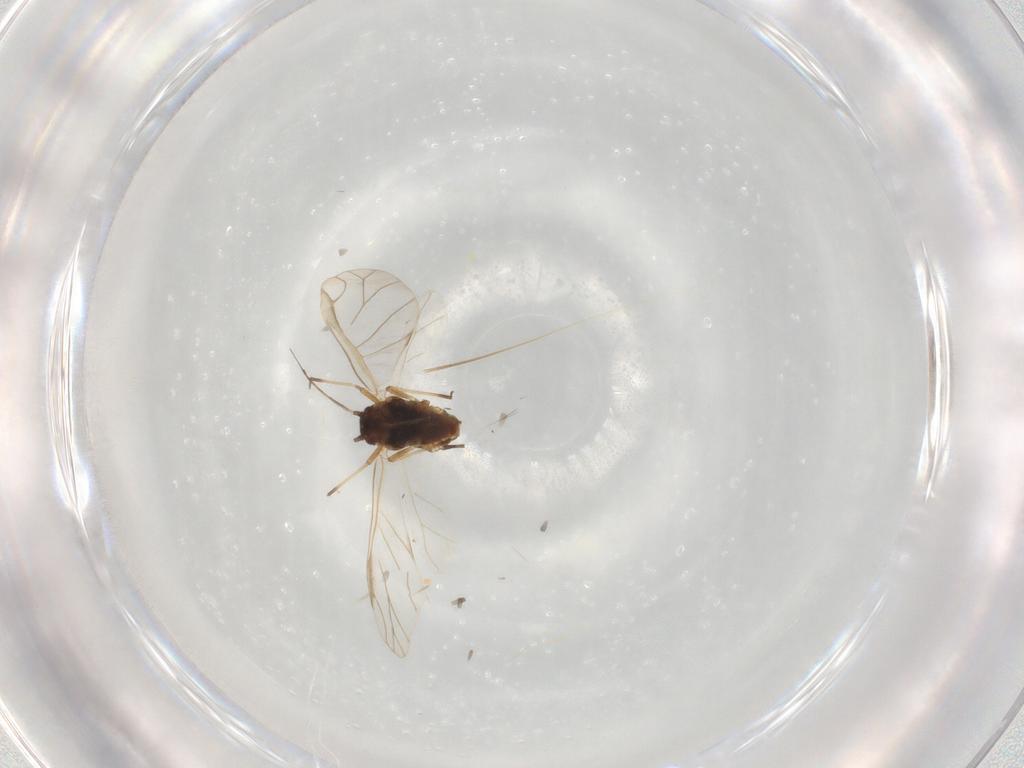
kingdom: Animalia
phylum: Arthropoda
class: Insecta
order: Hemiptera
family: Aphididae
